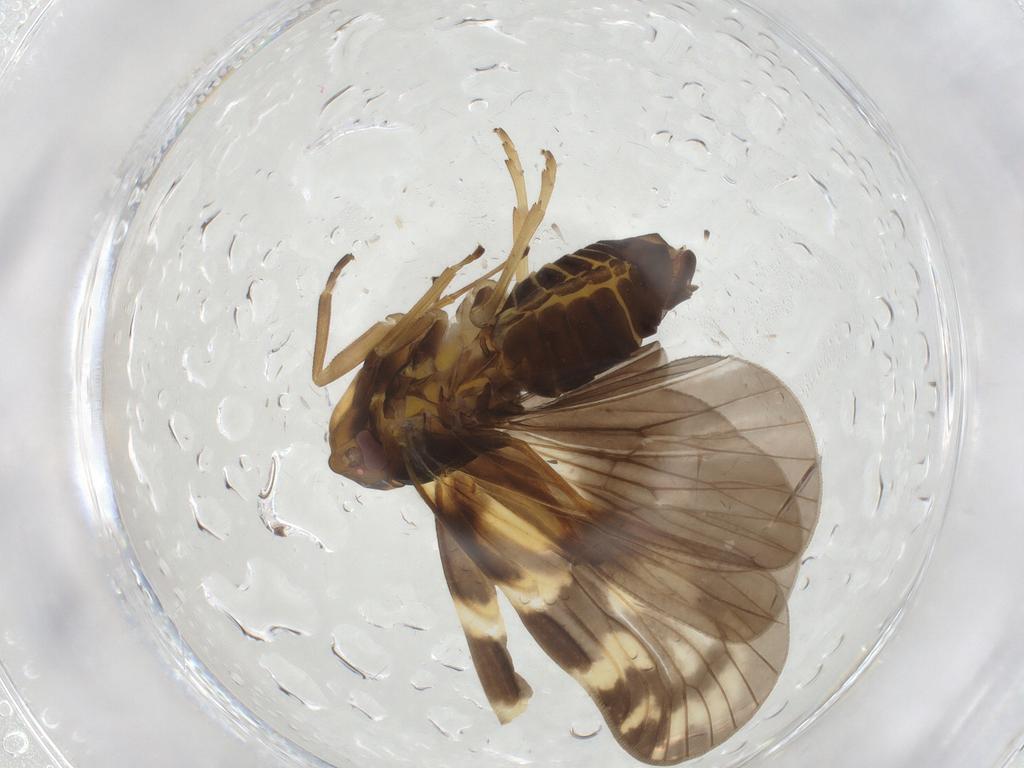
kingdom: Animalia
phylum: Arthropoda
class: Insecta
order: Hemiptera
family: Cixiidae
